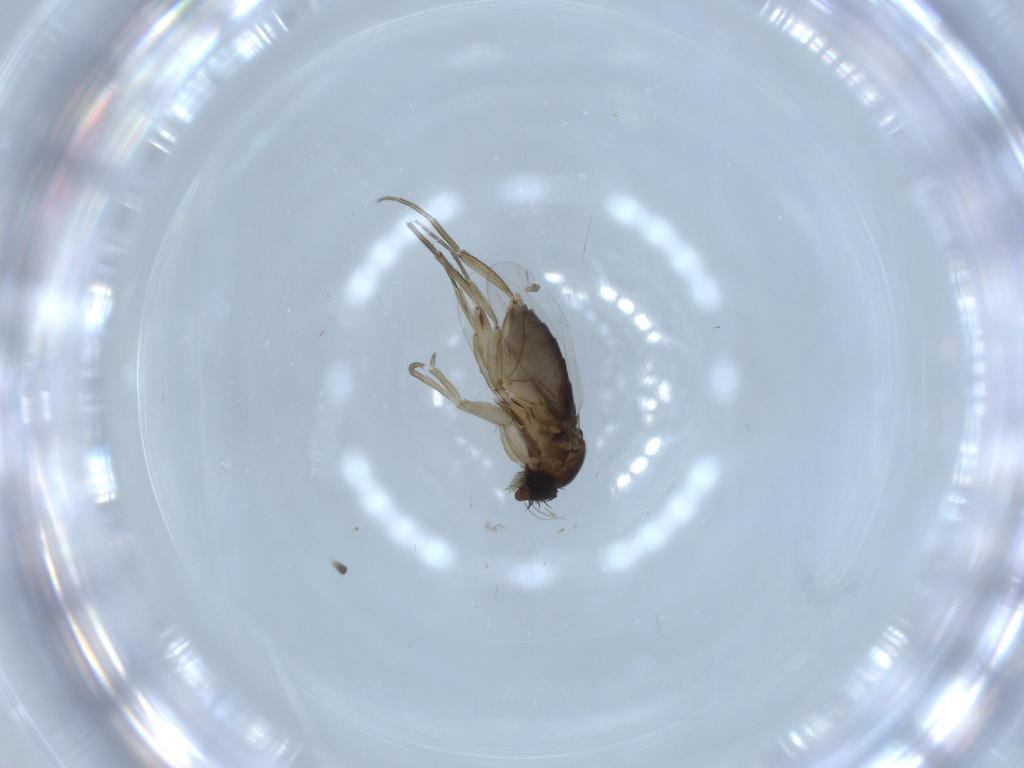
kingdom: Animalia
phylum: Arthropoda
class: Insecta
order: Diptera
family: Phoridae
